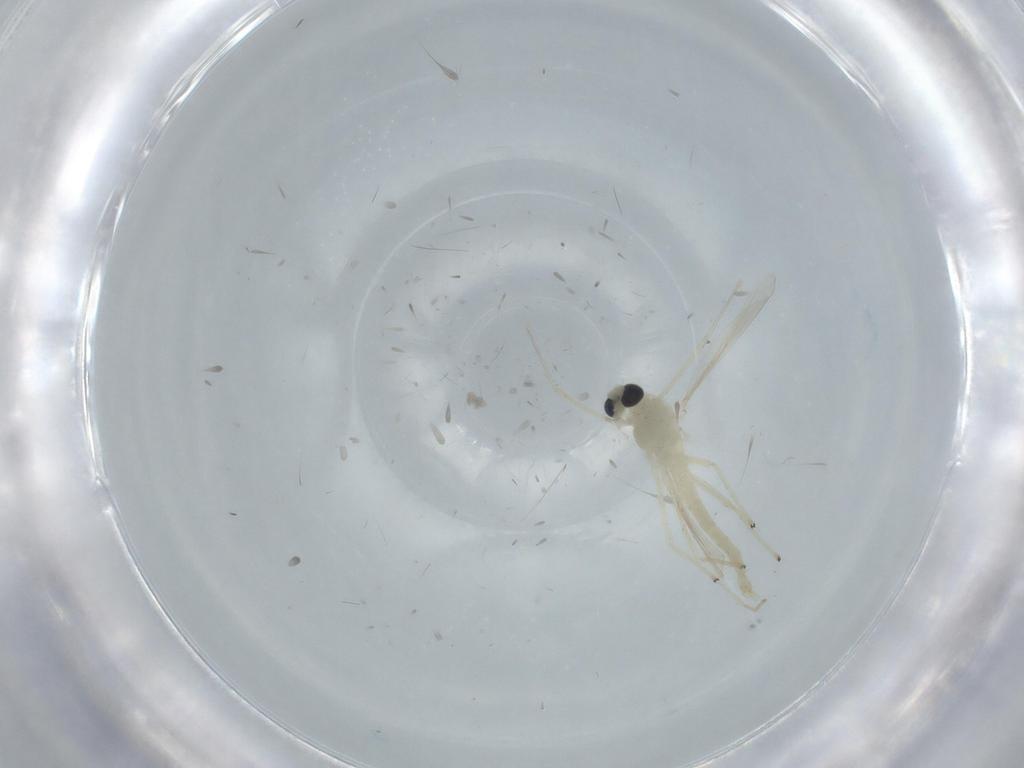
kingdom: Animalia
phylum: Arthropoda
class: Insecta
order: Diptera
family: Chironomidae
